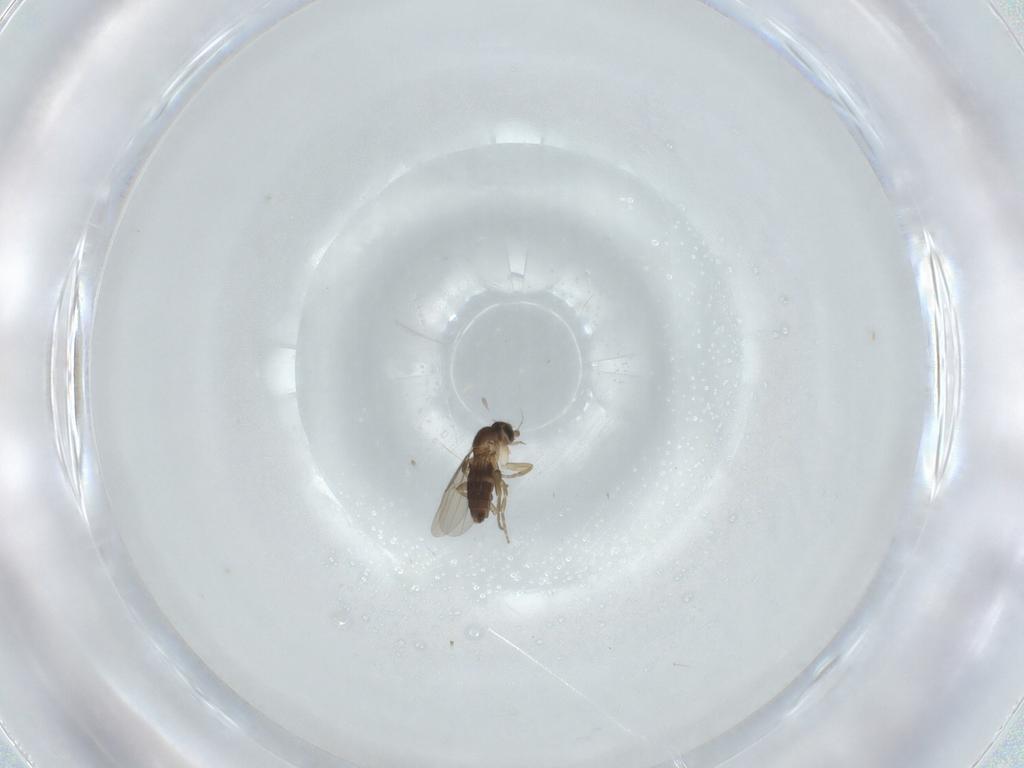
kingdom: Animalia
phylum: Arthropoda
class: Insecta
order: Diptera
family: Phoridae
